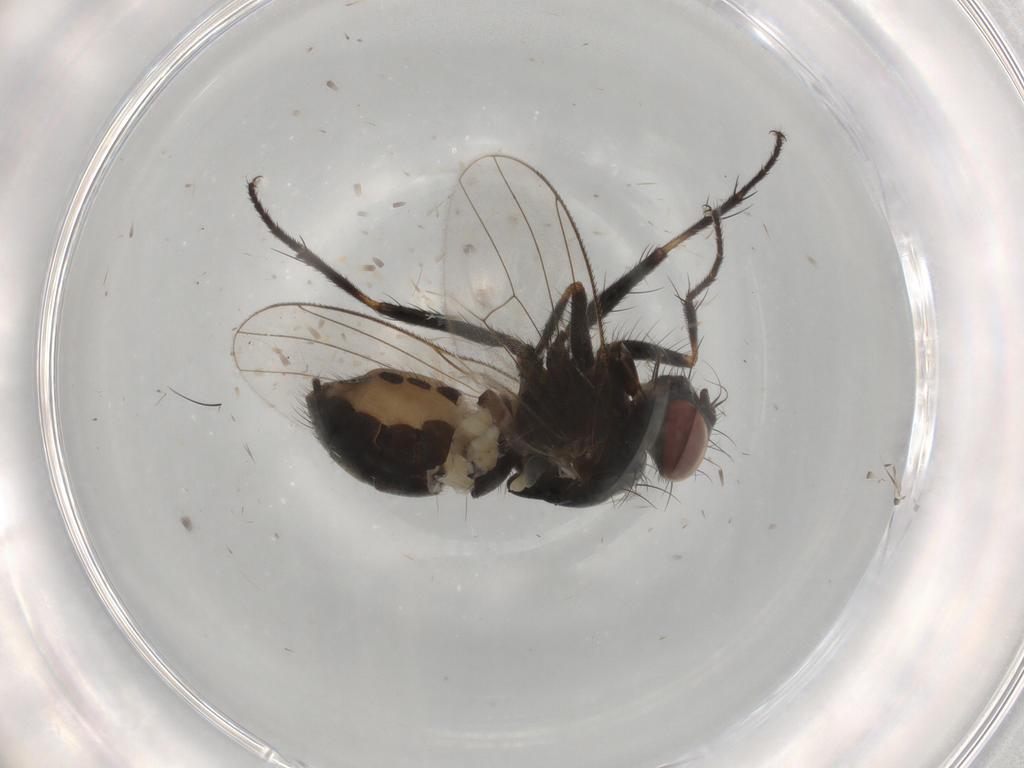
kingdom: Animalia
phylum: Arthropoda
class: Insecta
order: Diptera
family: Muscidae
